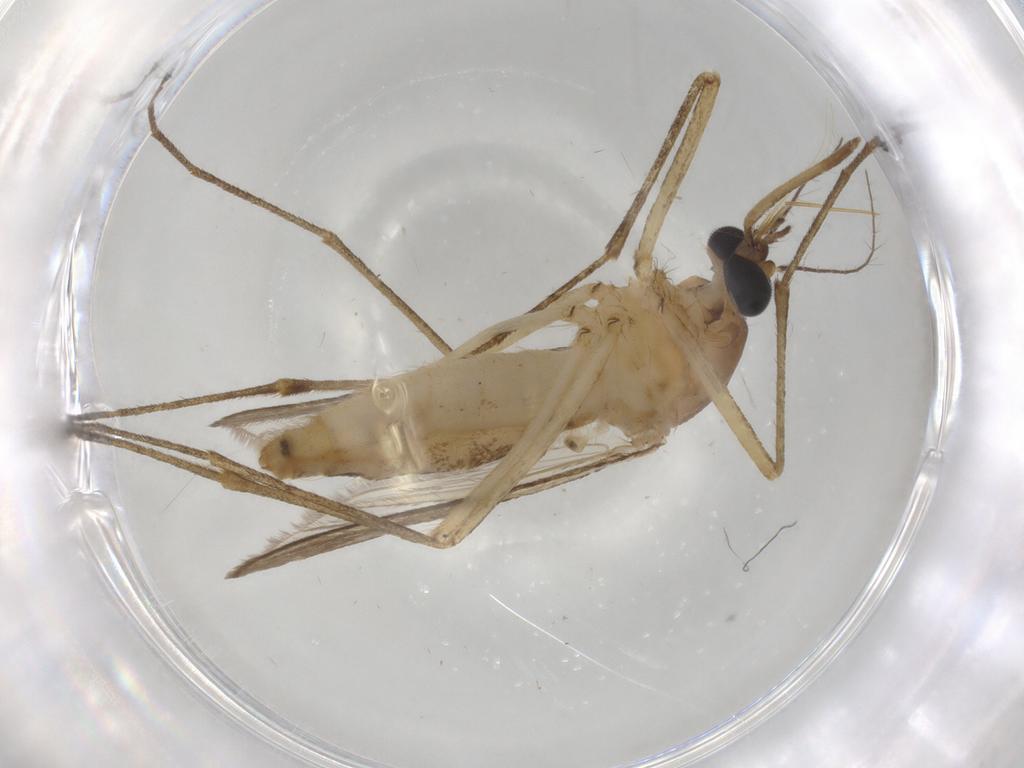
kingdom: Animalia
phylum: Arthropoda
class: Insecta
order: Diptera
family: Culicidae
